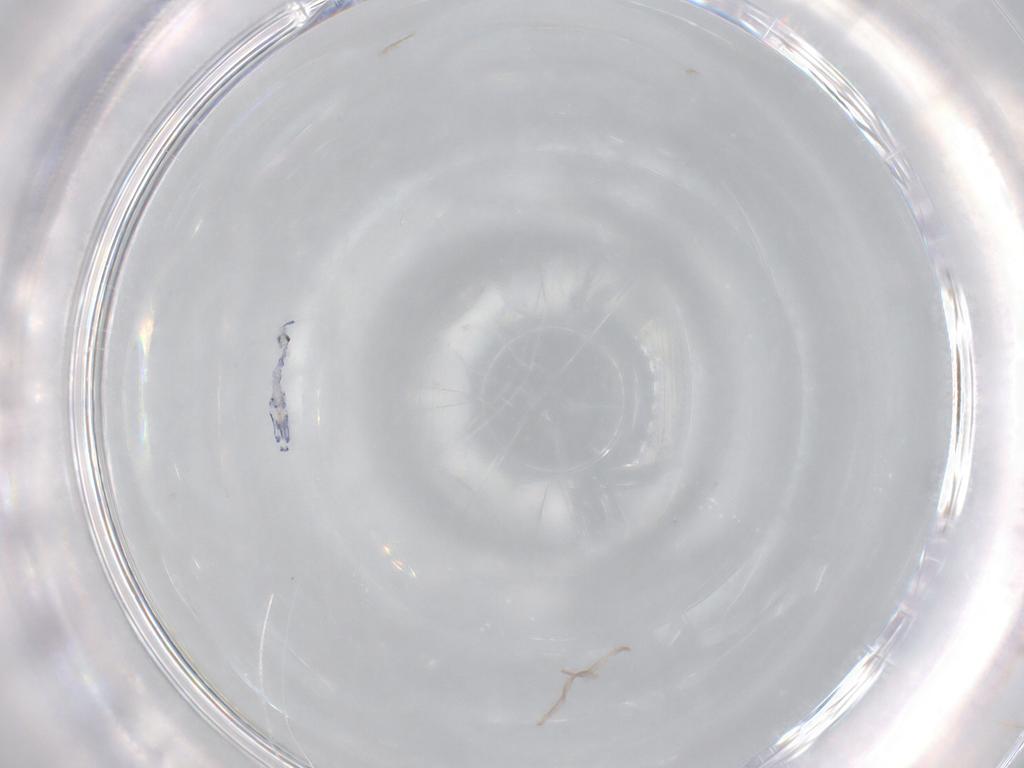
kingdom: Animalia
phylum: Arthropoda
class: Collembola
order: Entomobryomorpha
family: Entomobryidae
